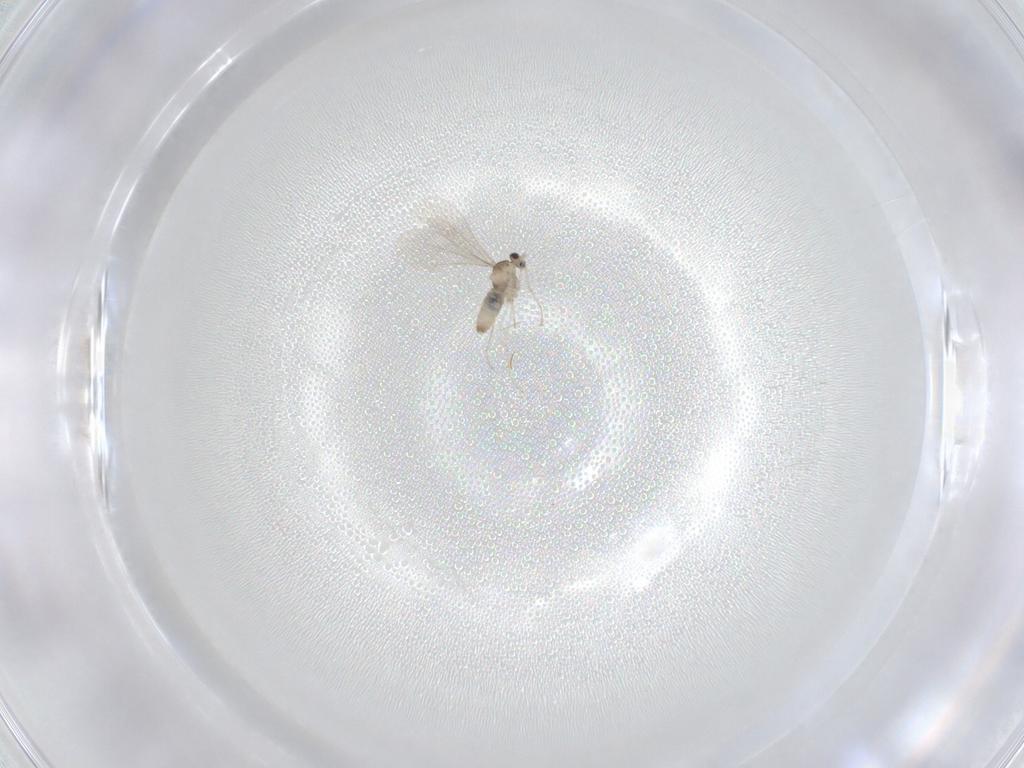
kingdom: Animalia
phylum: Arthropoda
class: Insecta
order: Diptera
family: Cecidomyiidae
